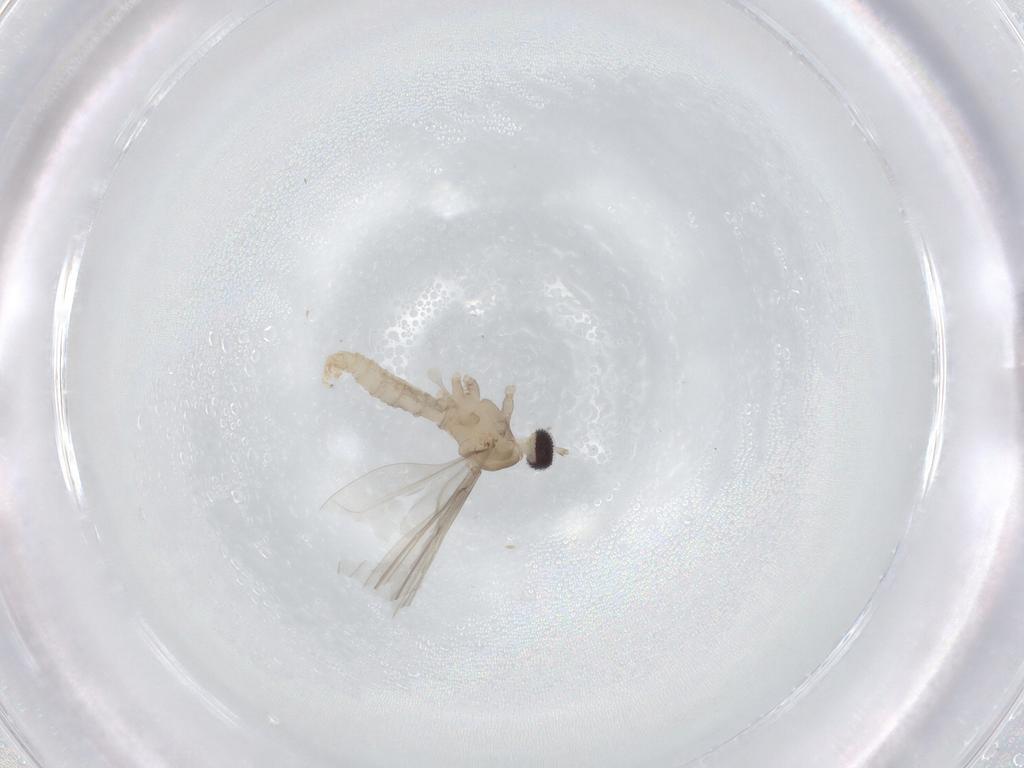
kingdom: Animalia
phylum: Arthropoda
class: Insecta
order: Diptera
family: Cecidomyiidae
